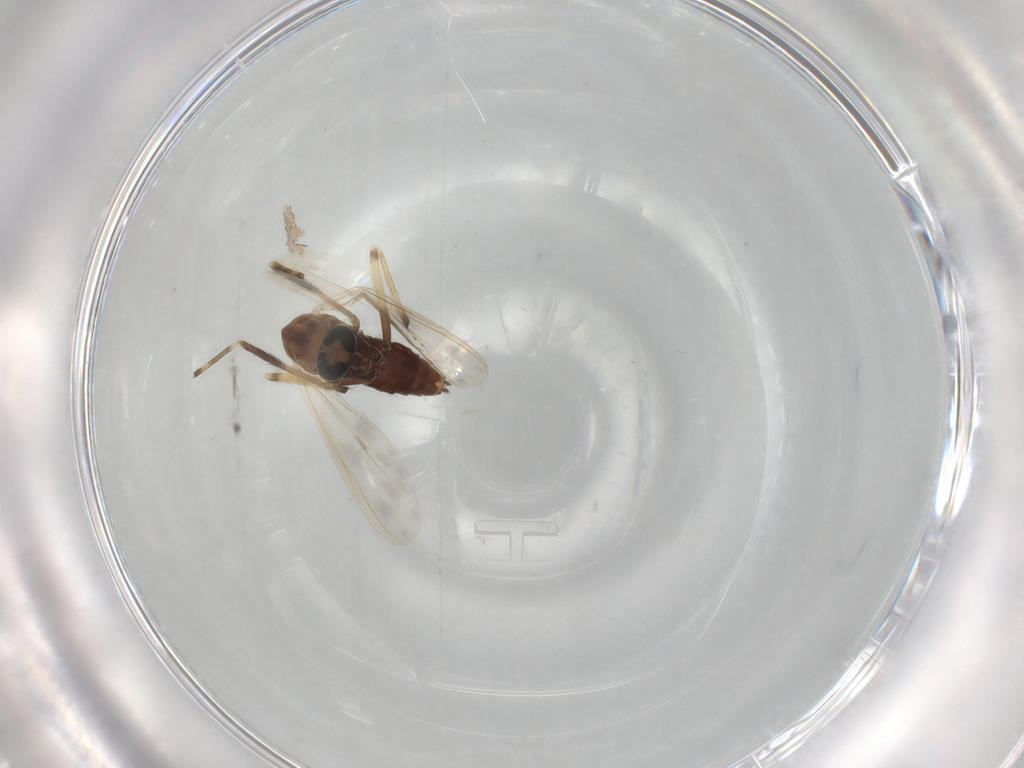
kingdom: Animalia
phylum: Arthropoda
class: Insecta
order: Diptera
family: Chironomidae
